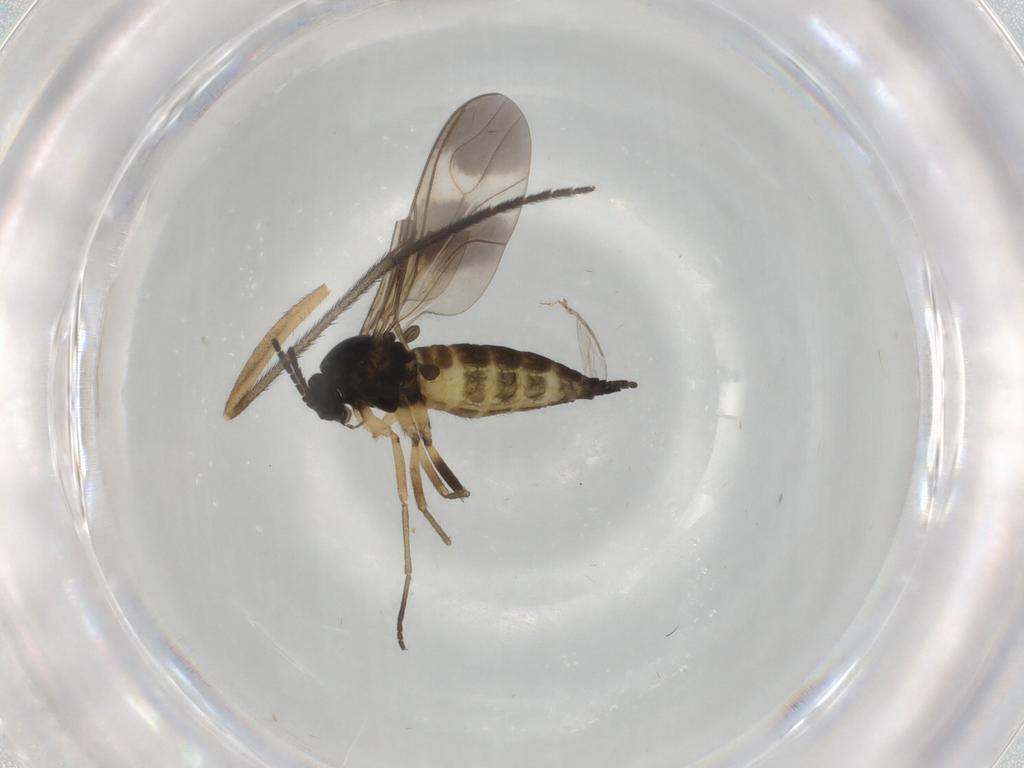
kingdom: Animalia
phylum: Arthropoda
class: Insecta
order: Diptera
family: Sciaridae
